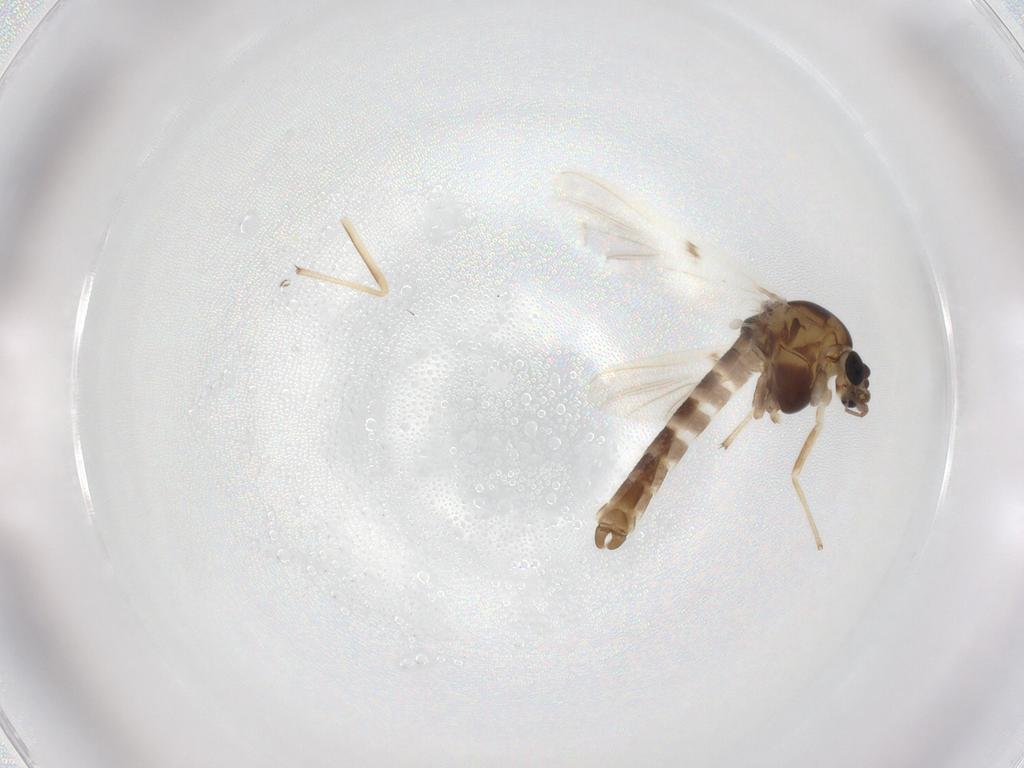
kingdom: Animalia
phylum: Arthropoda
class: Insecta
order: Diptera
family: Chironomidae
